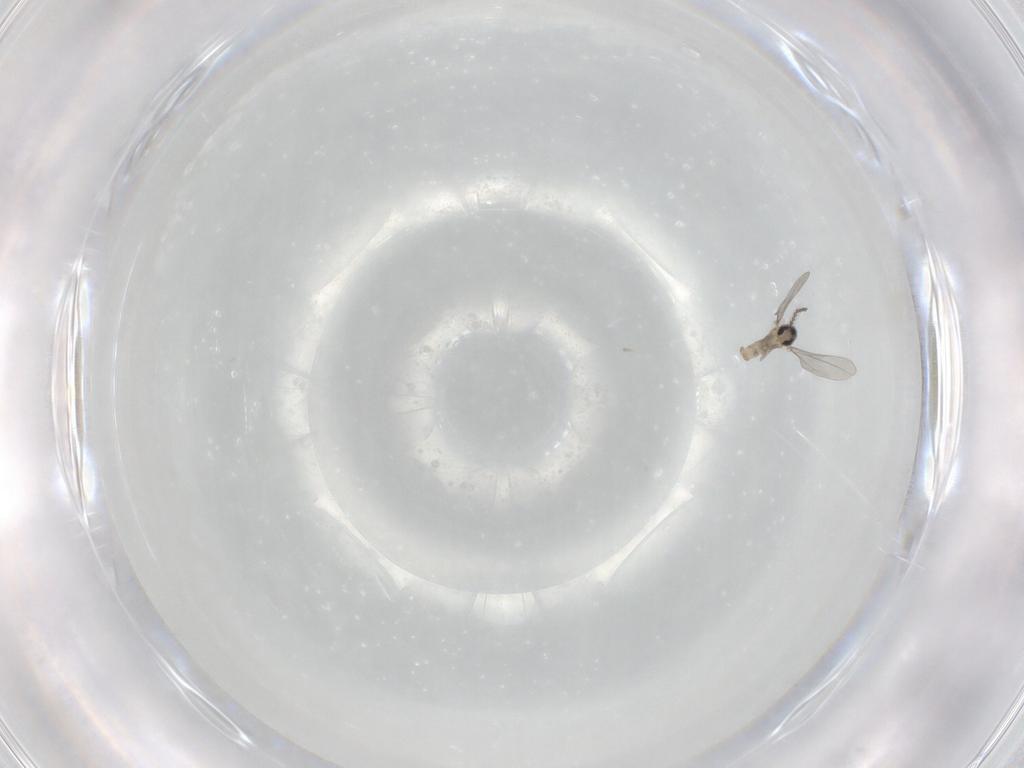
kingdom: Animalia
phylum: Arthropoda
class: Insecta
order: Diptera
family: Cecidomyiidae
